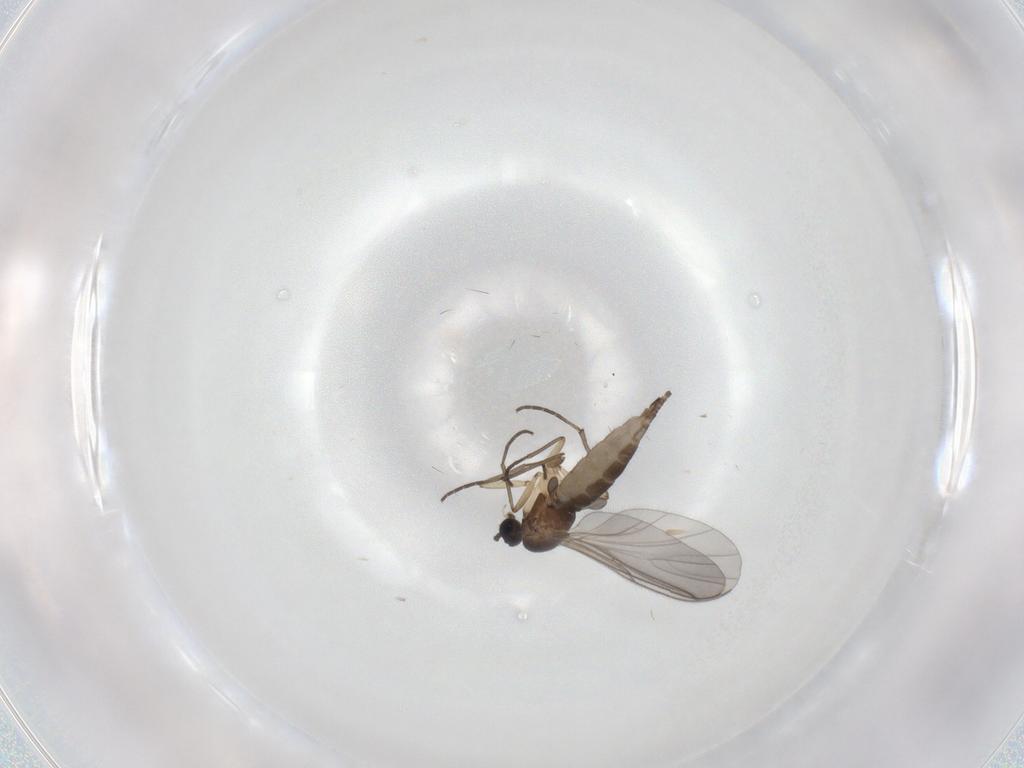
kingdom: Animalia
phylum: Arthropoda
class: Insecta
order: Diptera
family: Sciaridae
